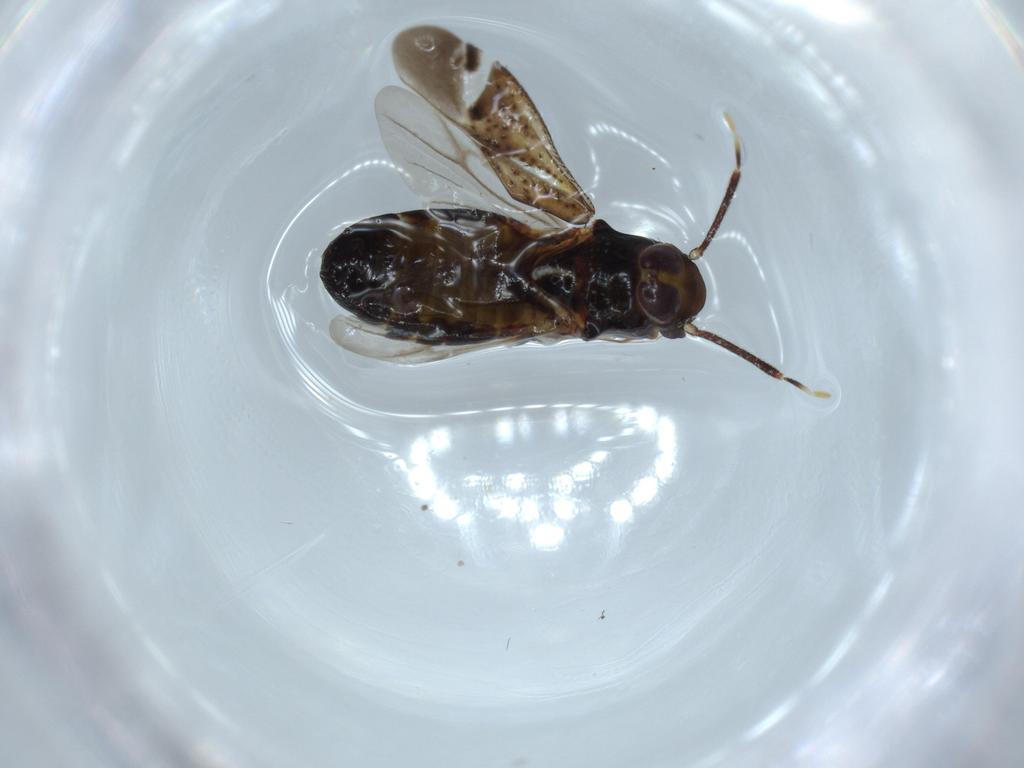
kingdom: Animalia
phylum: Arthropoda
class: Insecta
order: Hemiptera
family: Miridae
